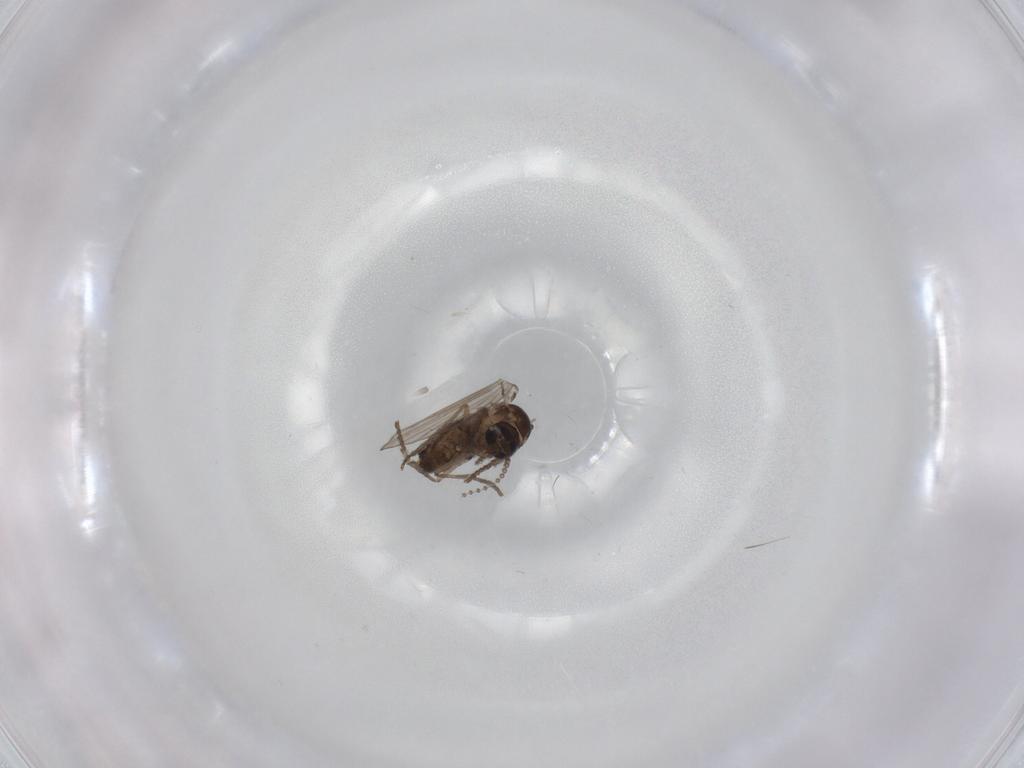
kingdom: Animalia
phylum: Arthropoda
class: Insecta
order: Diptera
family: Psychodidae
